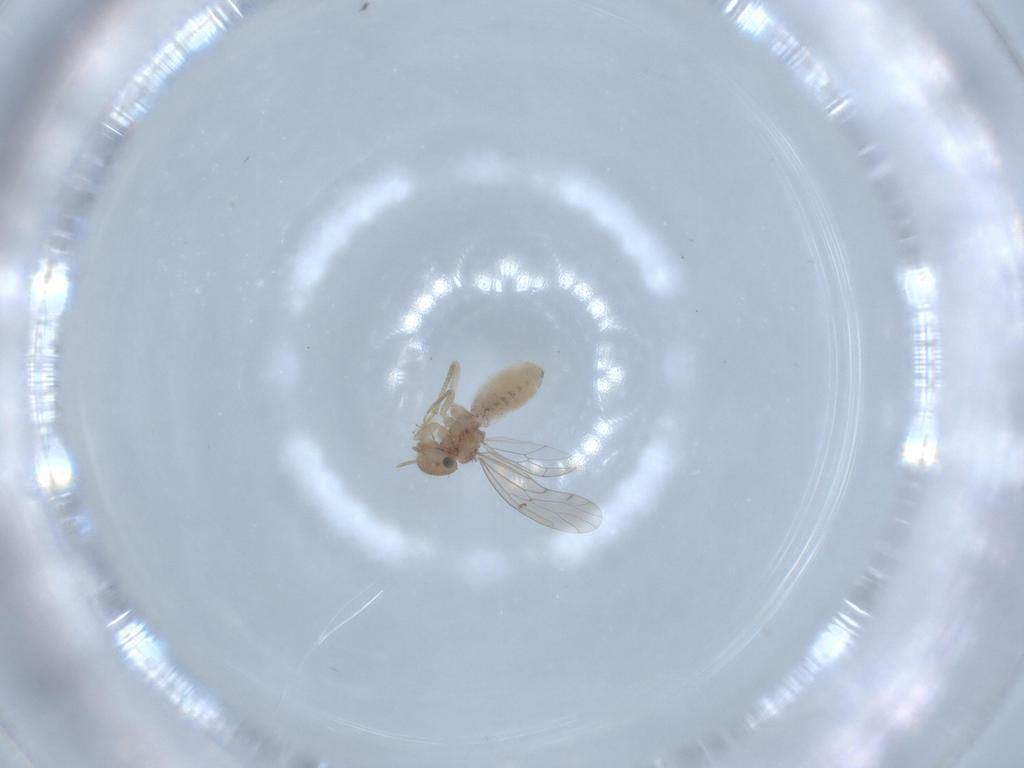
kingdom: Animalia
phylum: Arthropoda
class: Insecta
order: Psocodea
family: Ectopsocidae
